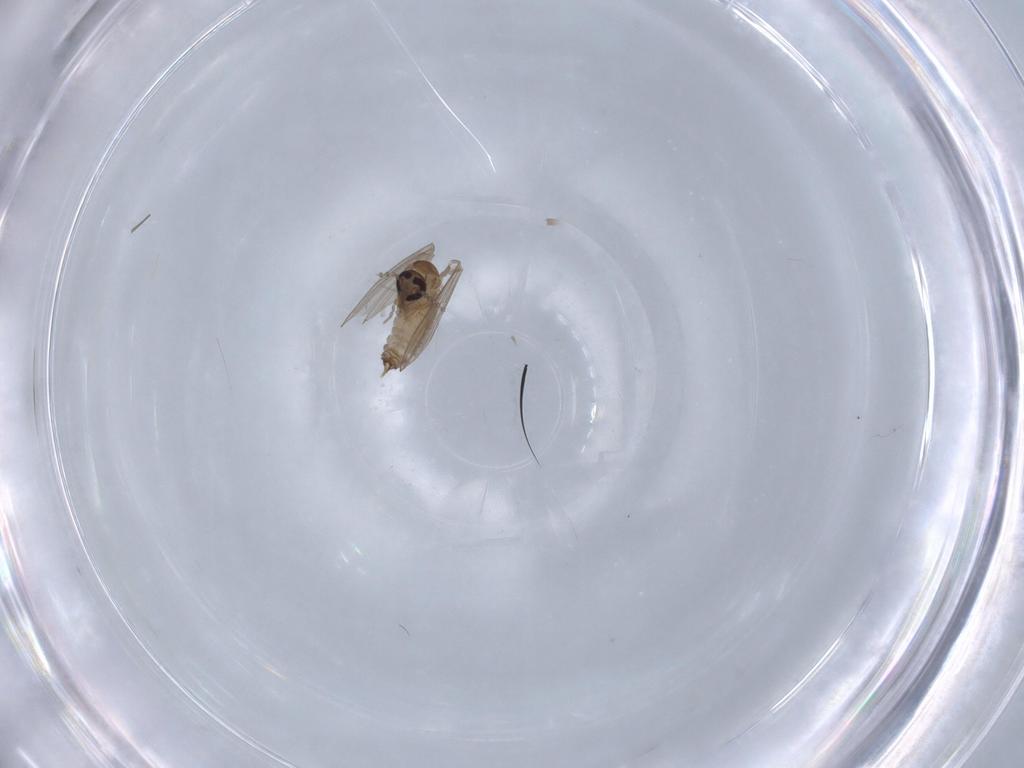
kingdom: Animalia
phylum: Arthropoda
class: Insecta
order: Diptera
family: Psychodidae
